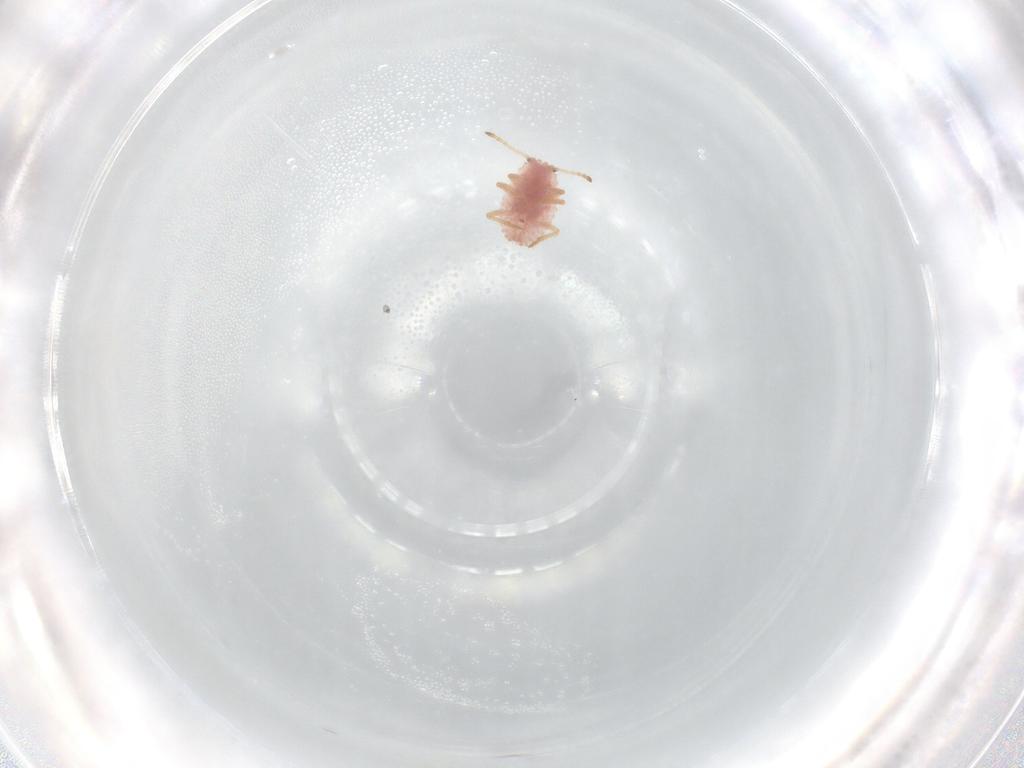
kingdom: Animalia
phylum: Arthropoda
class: Insecta
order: Hemiptera
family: Coccoidea_incertae_sedis
